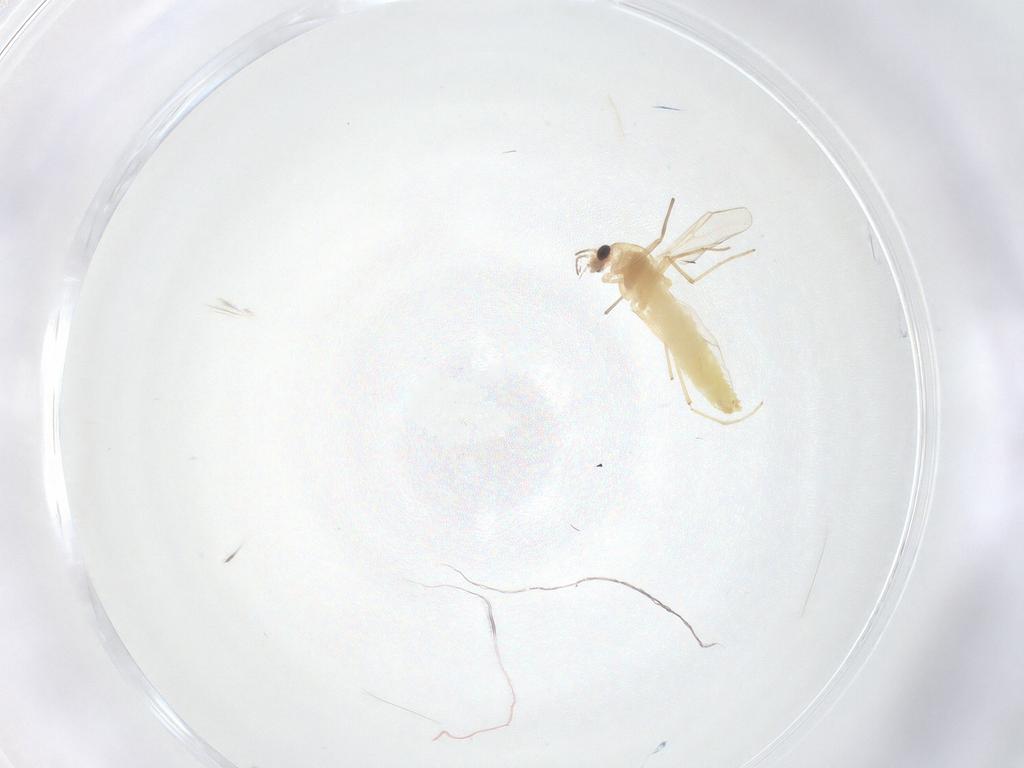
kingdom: Animalia
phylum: Arthropoda
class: Insecta
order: Diptera
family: Chironomidae
